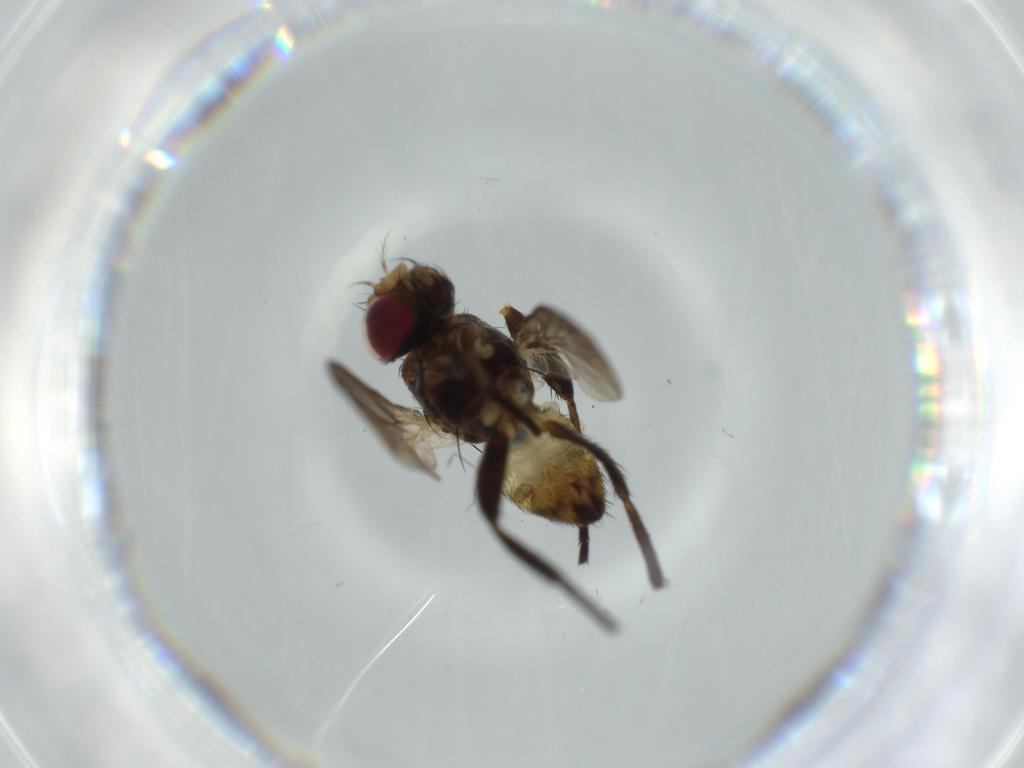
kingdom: Animalia
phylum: Arthropoda
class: Insecta
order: Diptera
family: Anthomyiidae
